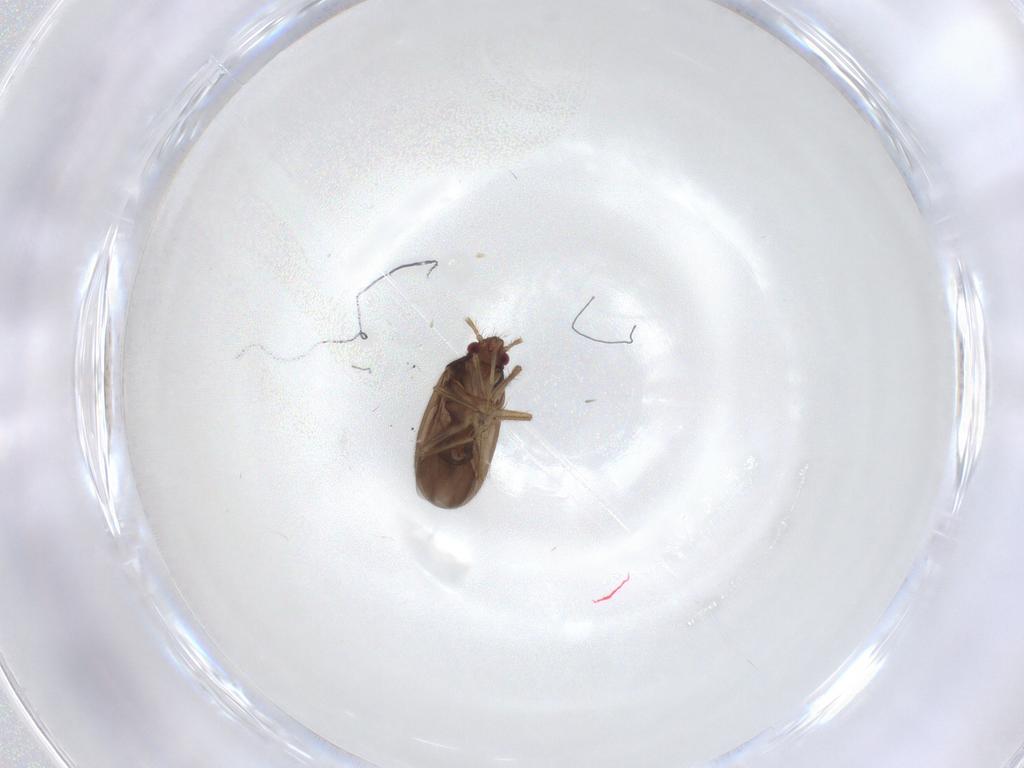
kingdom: Animalia
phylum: Arthropoda
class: Insecta
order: Hemiptera
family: Ceratocombidae
